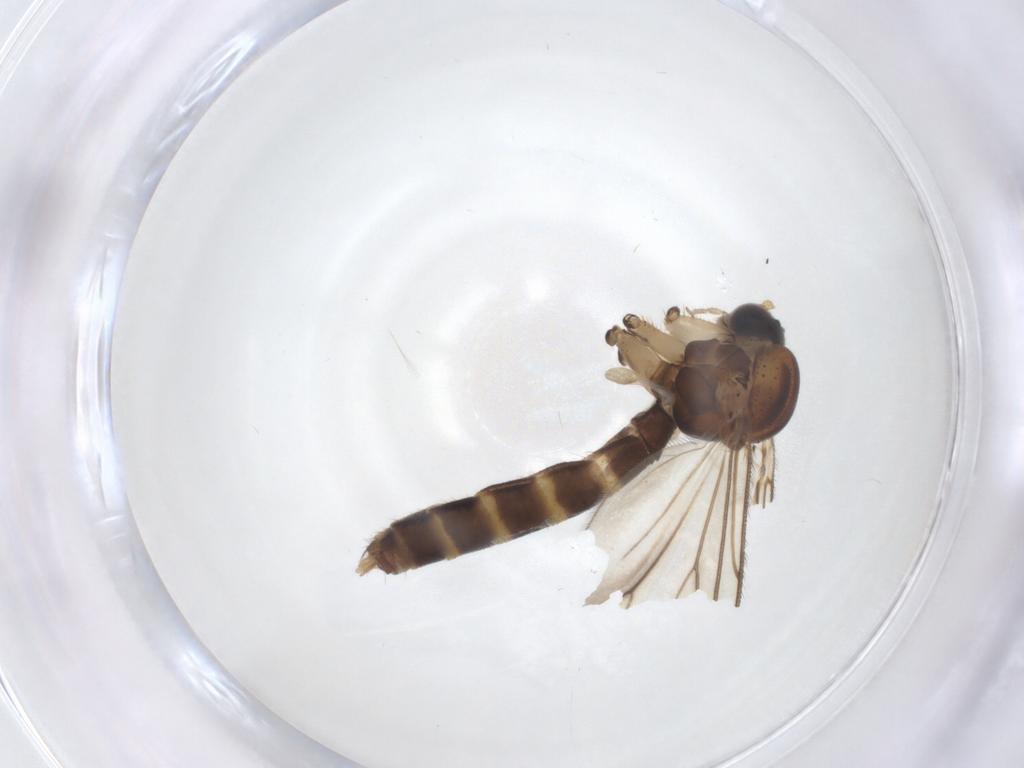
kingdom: Animalia
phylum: Arthropoda
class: Insecta
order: Diptera
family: Mycetophilidae
